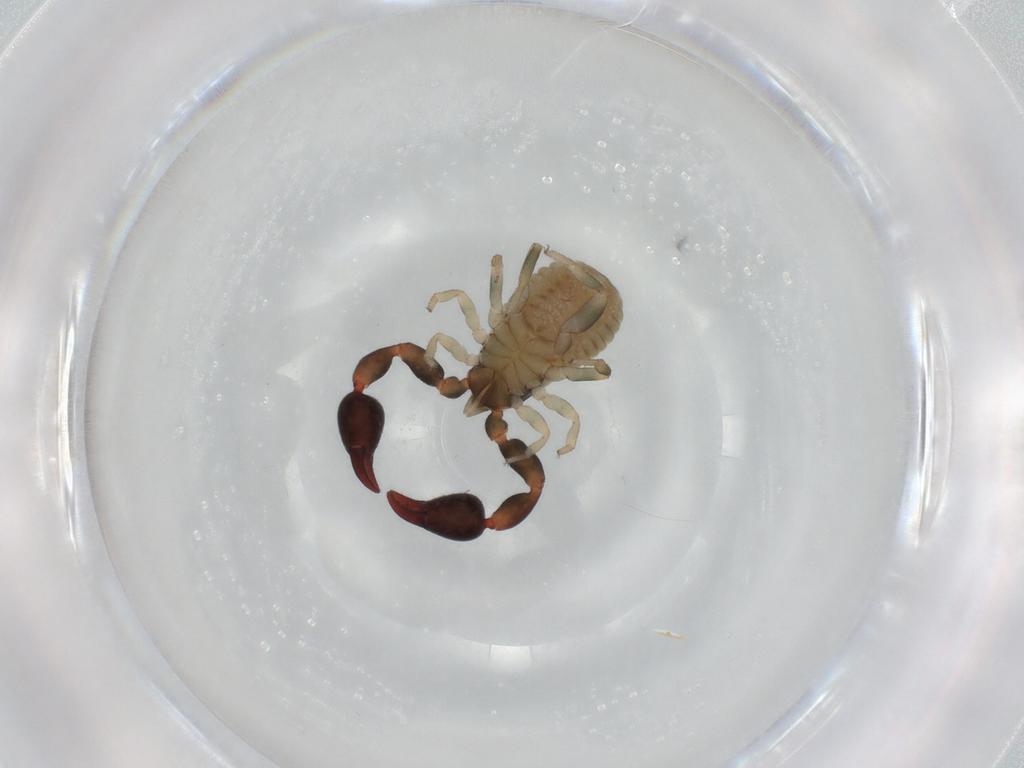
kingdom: Animalia
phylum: Arthropoda
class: Arachnida
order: Pseudoscorpiones
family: Chernetidae
